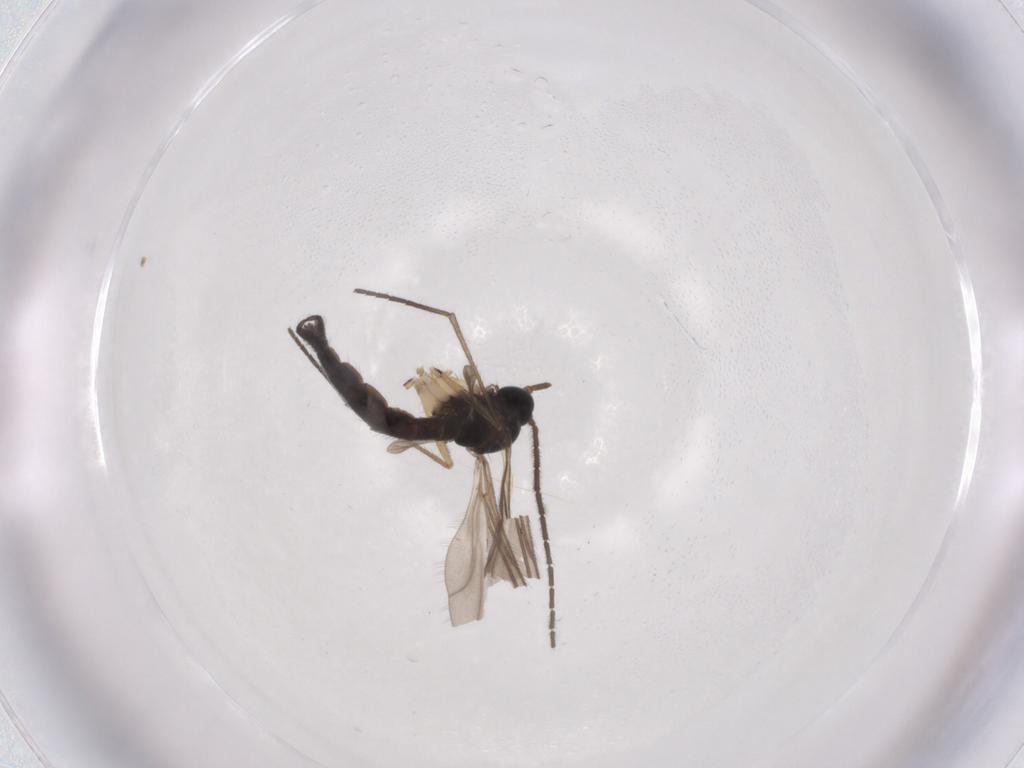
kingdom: Animalia
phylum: Arthropoda
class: Insecta
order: Diptera
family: Sciaridae
